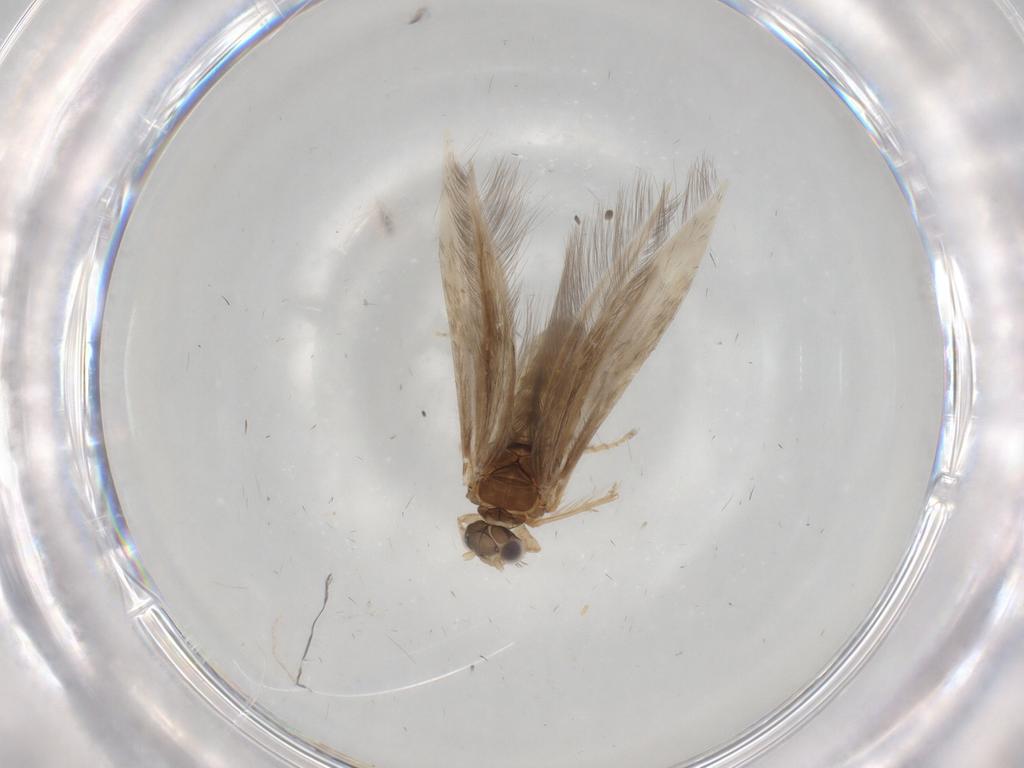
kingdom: Animalia
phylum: Arthropoda
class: Insecta
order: Trichoptera
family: Hydroptilidae
